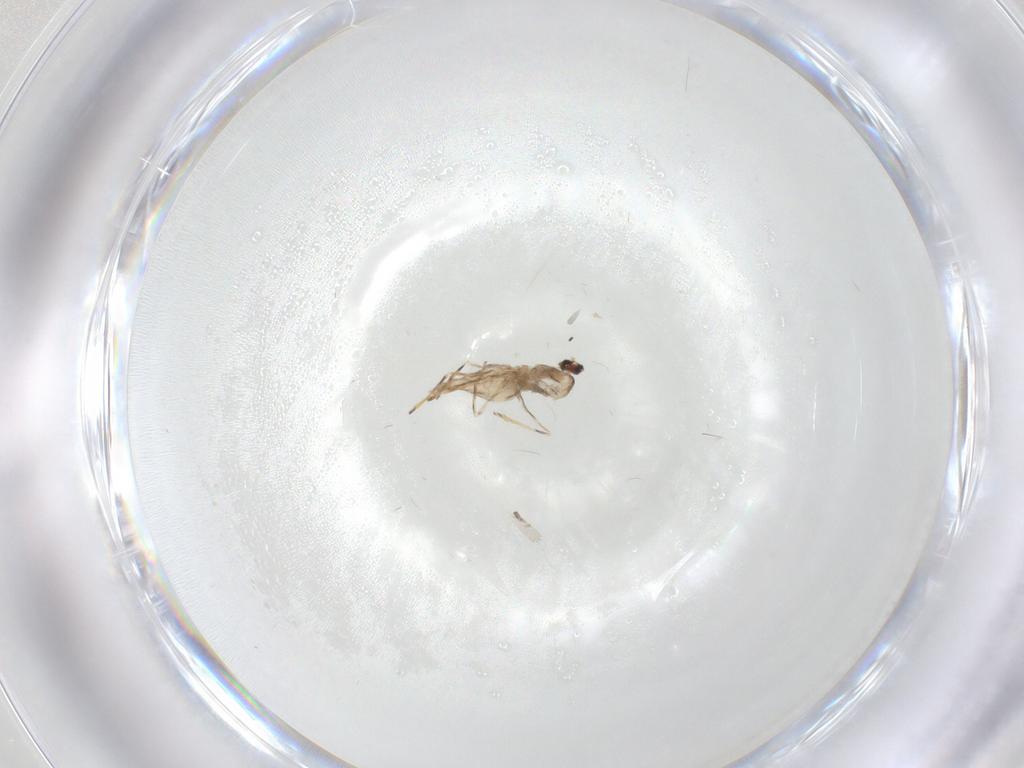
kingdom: Animalia
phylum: Arthropoda
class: Insecta
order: Diptera
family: Cecidomyiidae
